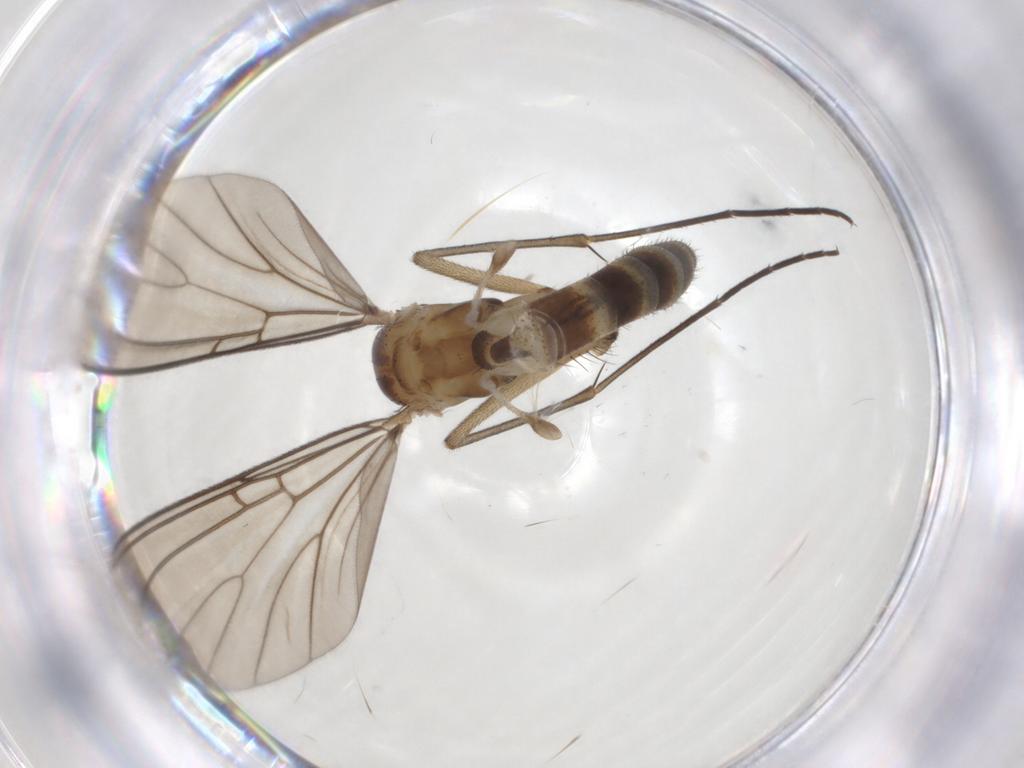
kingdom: Animalia
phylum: Arthropoda
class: Insecta
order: Diptera
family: Mycetophilidae
